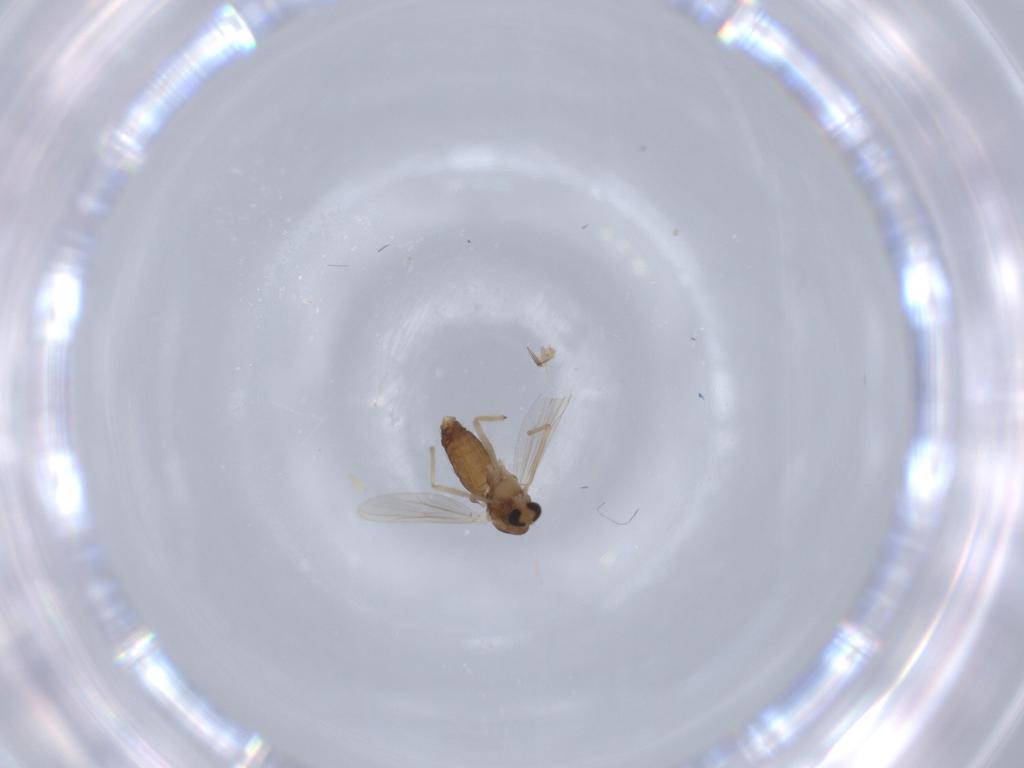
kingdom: Animalia
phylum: Arthropoda
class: Insecta
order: Diptera
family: Chironomidae
